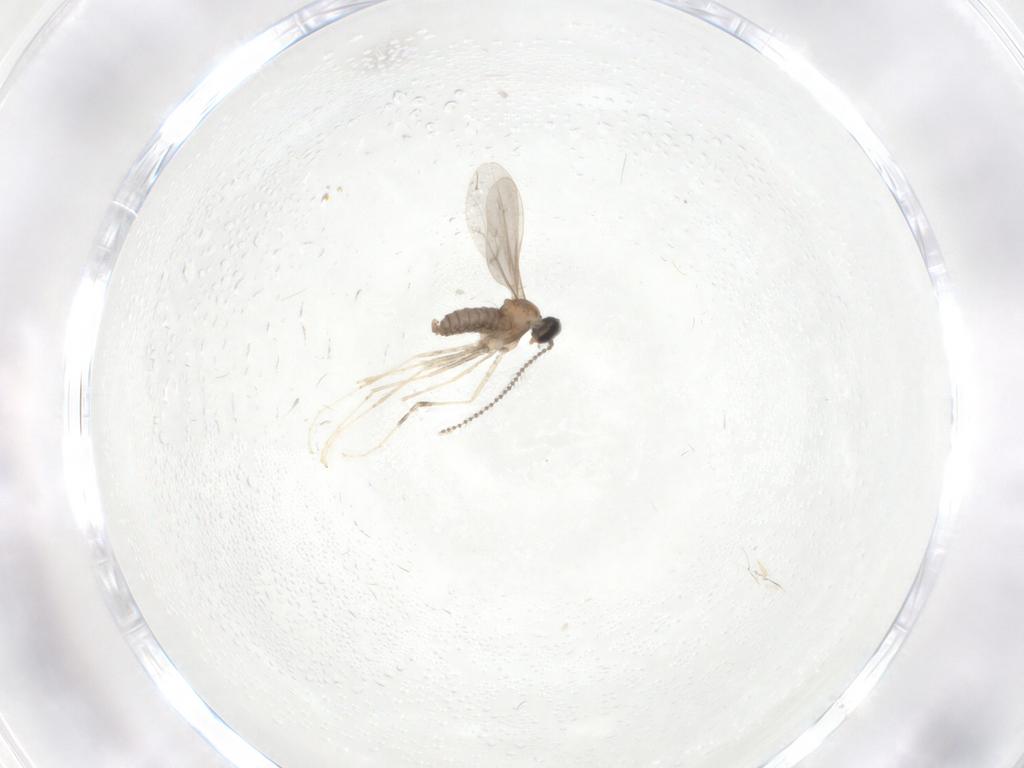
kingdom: Animalia
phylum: Arthropoda
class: Insecta
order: Diptera
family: Cecidomyiidae
